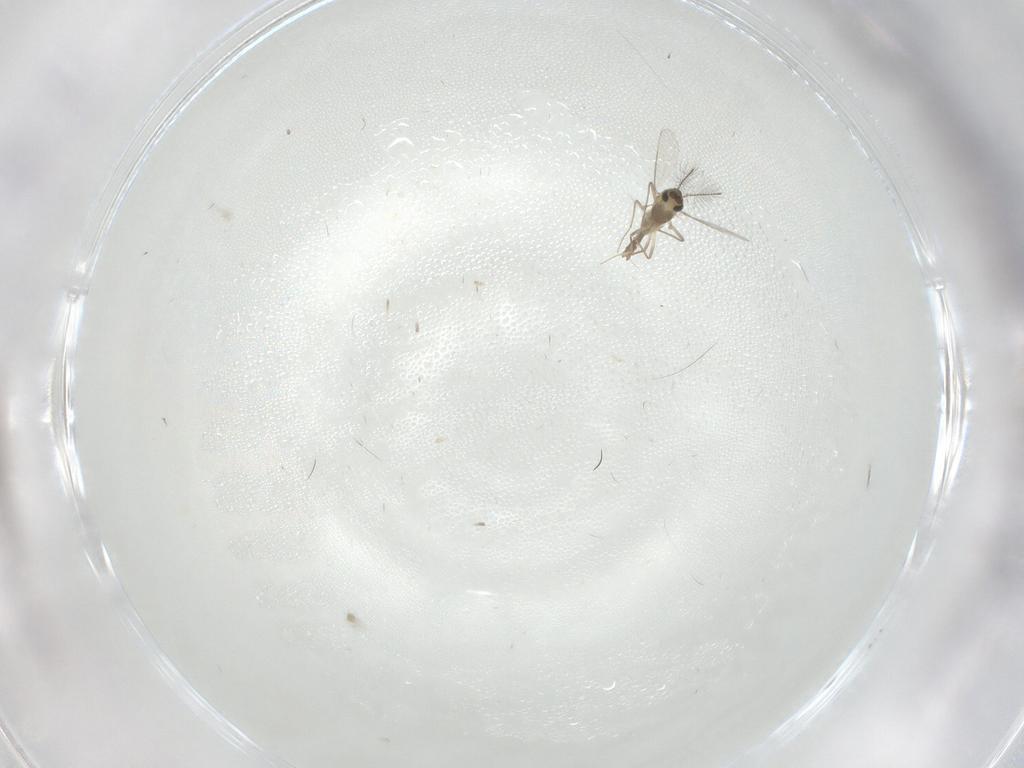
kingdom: Animalia
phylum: Arthropoda
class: Insecta
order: Diptera
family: Chironomidae
